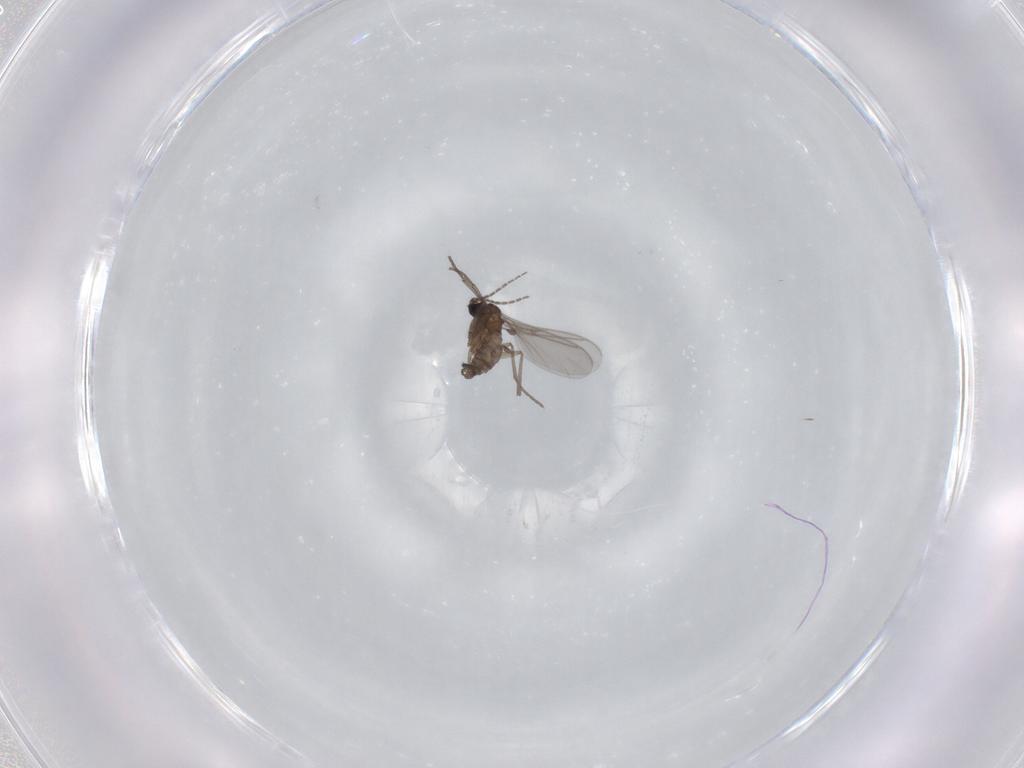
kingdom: Animalia
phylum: Arthropoda
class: Insecta
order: Diptera
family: Sciaridae
